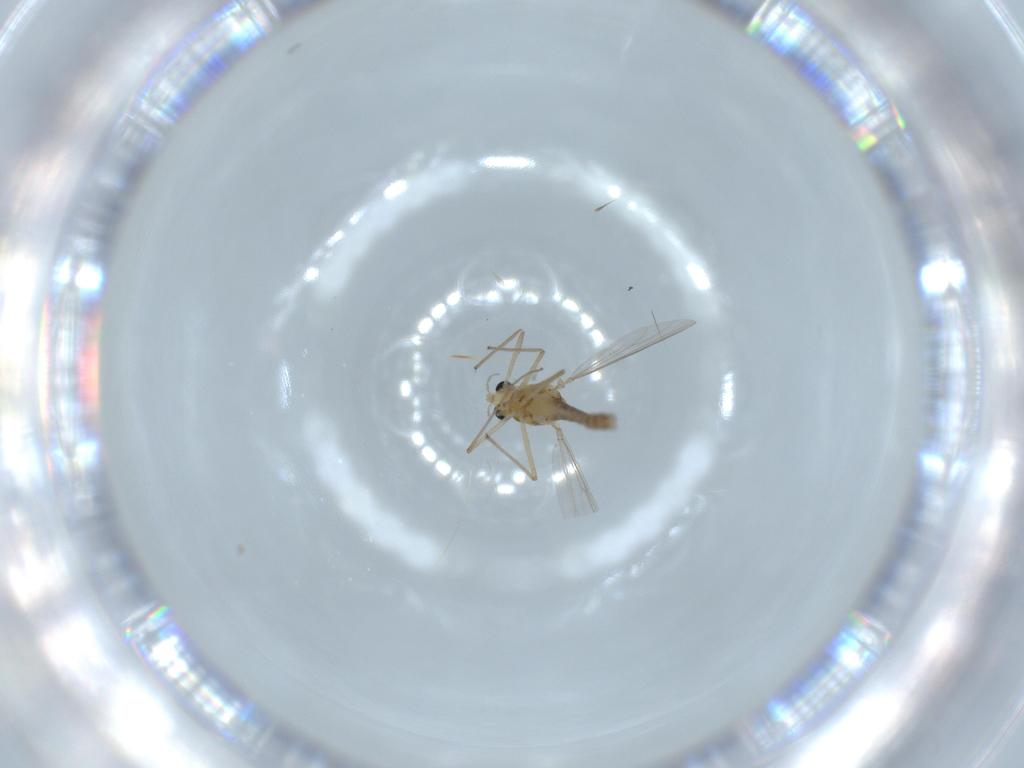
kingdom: Animalia
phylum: Arthropoda
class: Insecta
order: Diptera
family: Chironomidae
